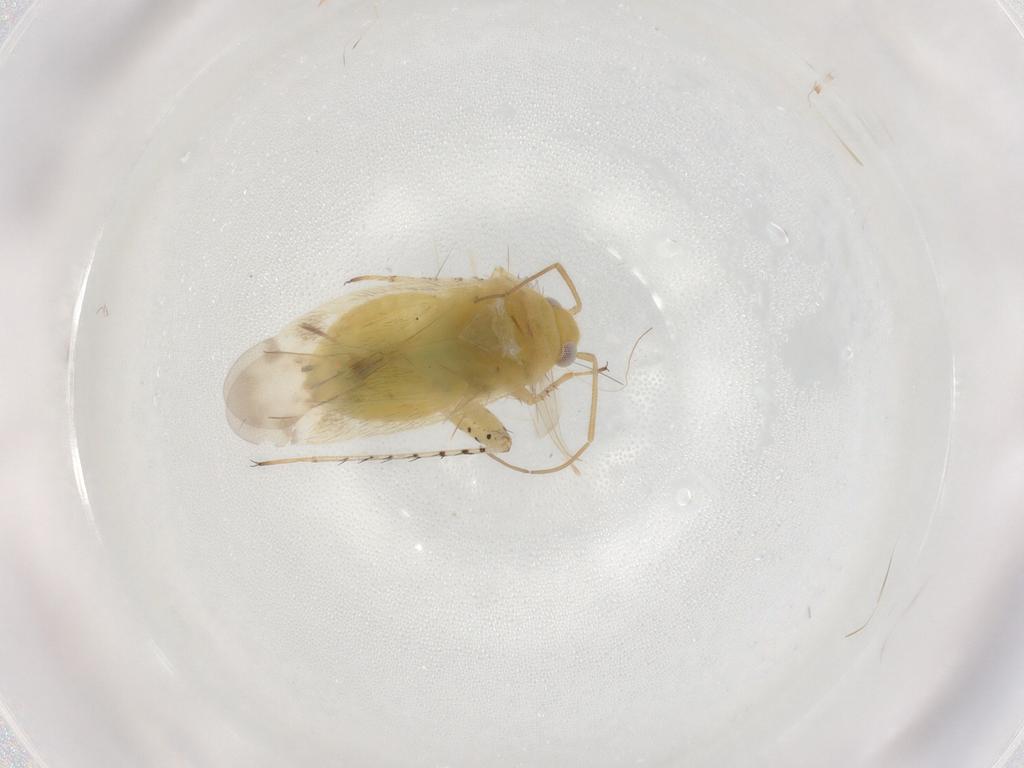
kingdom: Animalia
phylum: Arthropoda
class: Insecta
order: Hemiptera
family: Miridae
